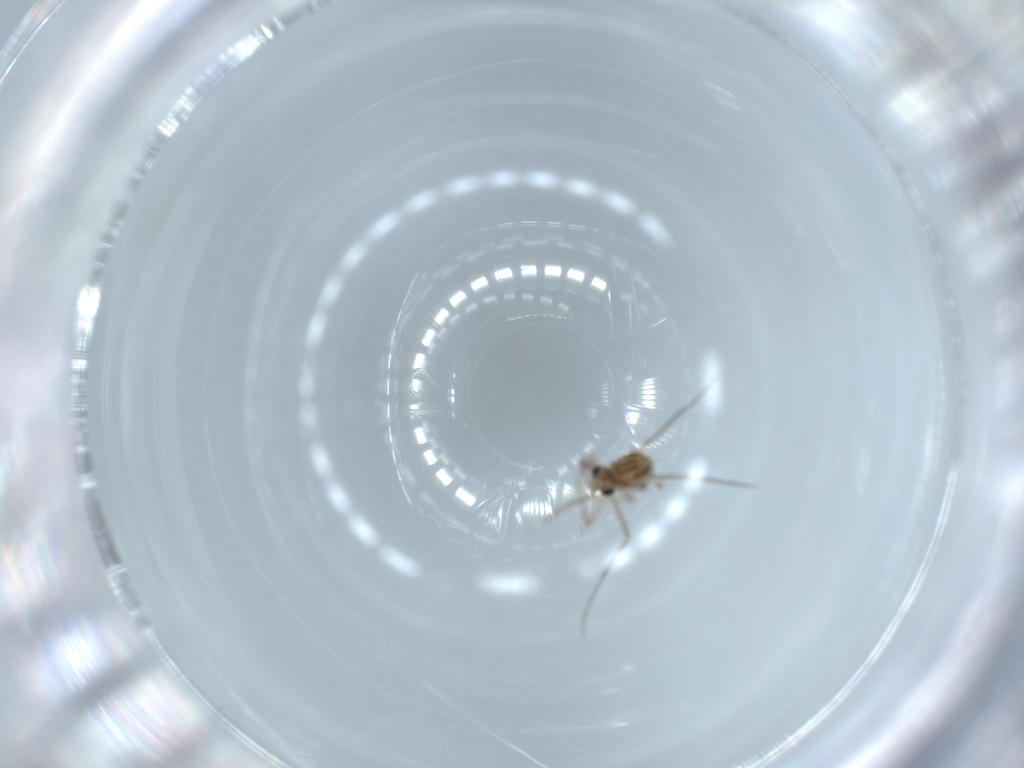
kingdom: Animalia
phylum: Arthropoda
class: Insecta
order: Diptera
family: Chironomidae
